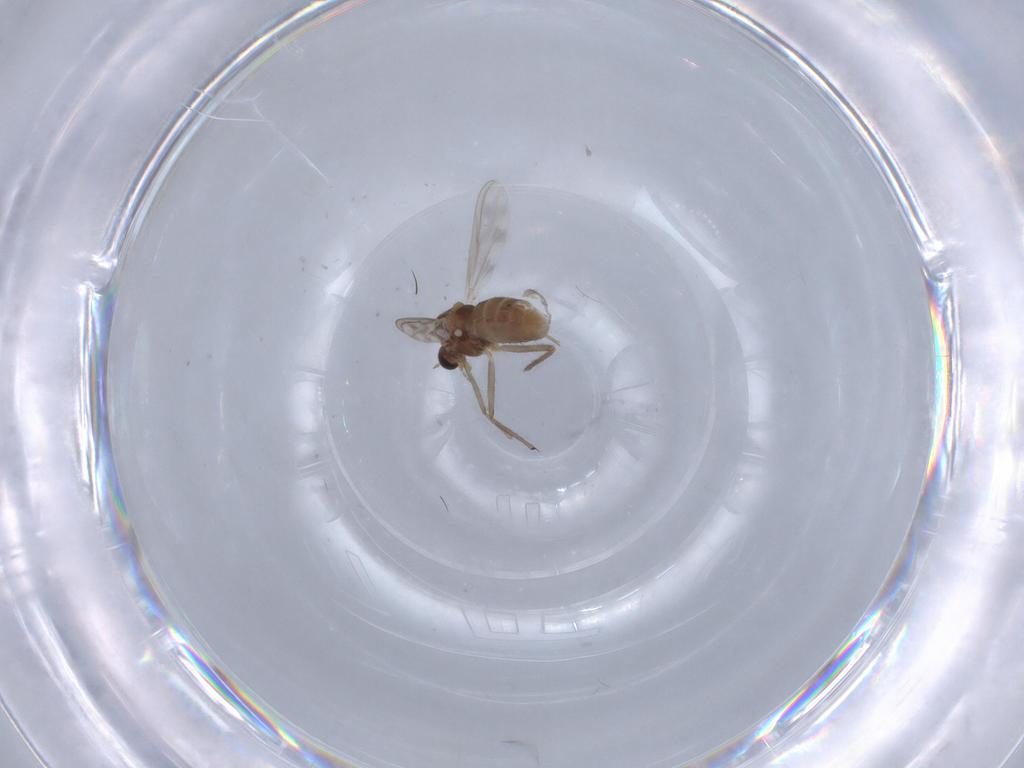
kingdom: Animalia
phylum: Arthropoda
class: Insecta
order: Diptera
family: Chironomidae
